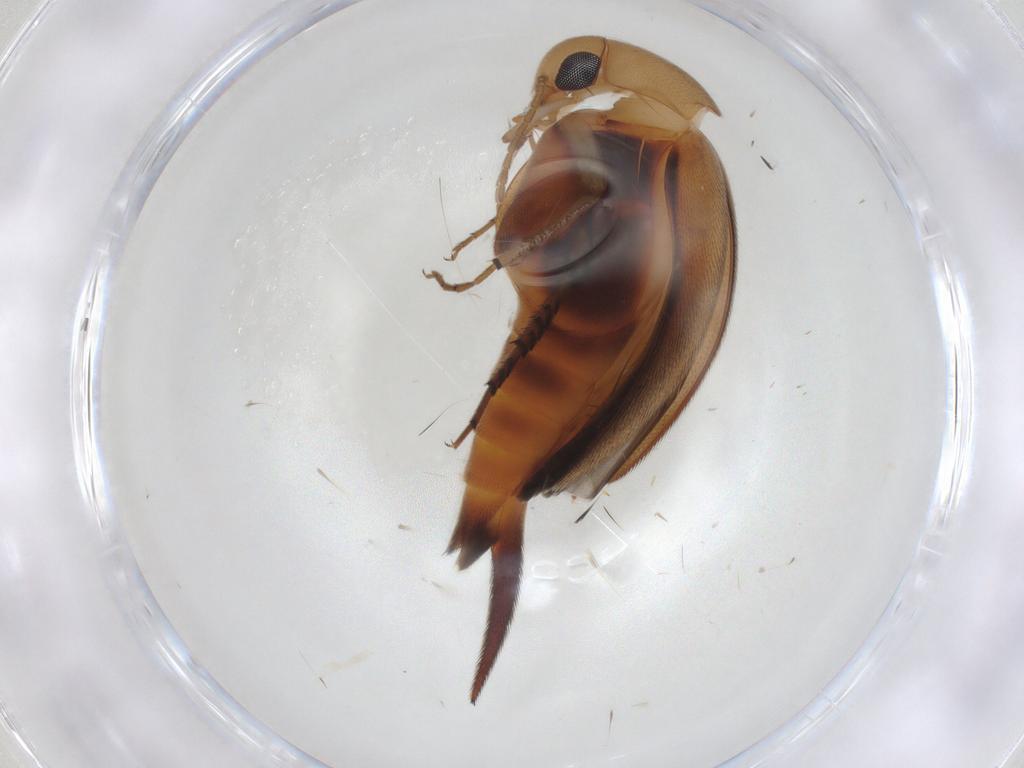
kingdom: Animalia
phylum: Arthropoda
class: Insecta
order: Coleoptera
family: Mordellidae
